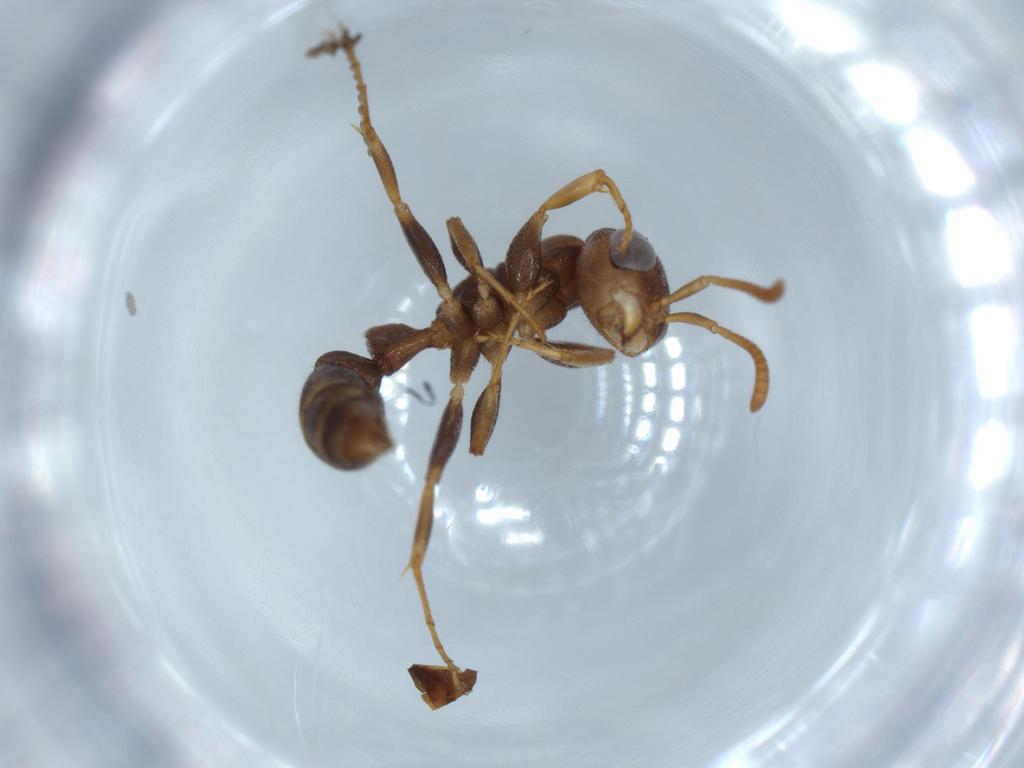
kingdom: Animalia
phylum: Arthropoda
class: Insecta
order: Hymenoptera
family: Formicidae
